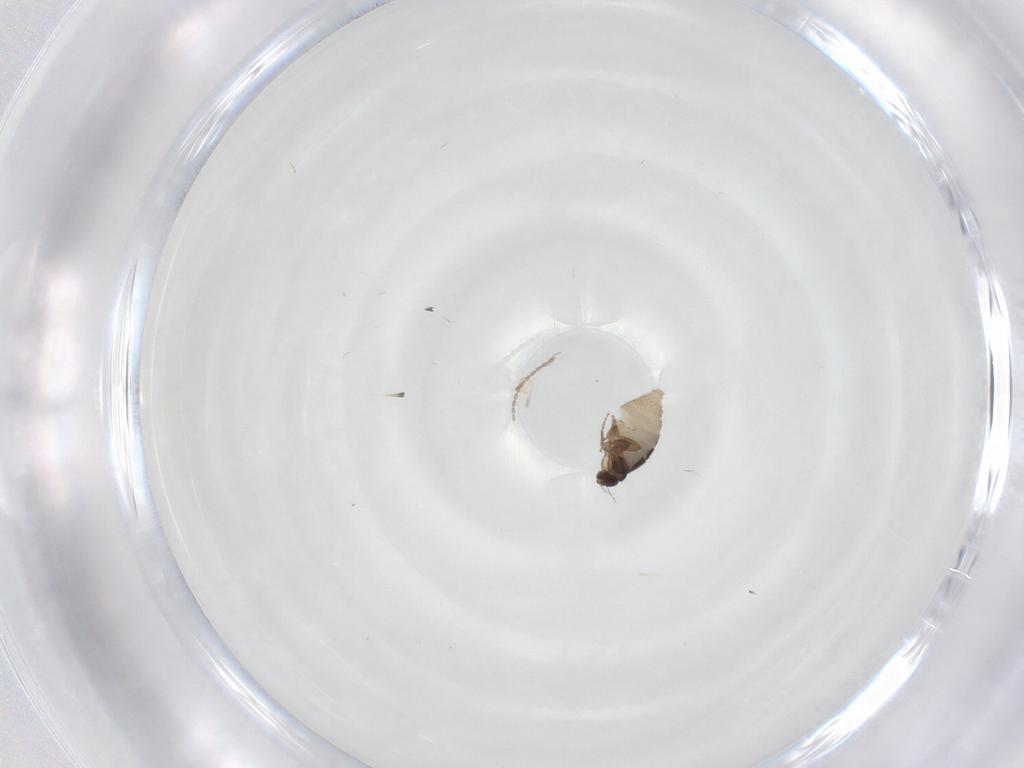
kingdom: Animalia
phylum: Arthropoda
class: Insecta
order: Diptera
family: Phoridae
